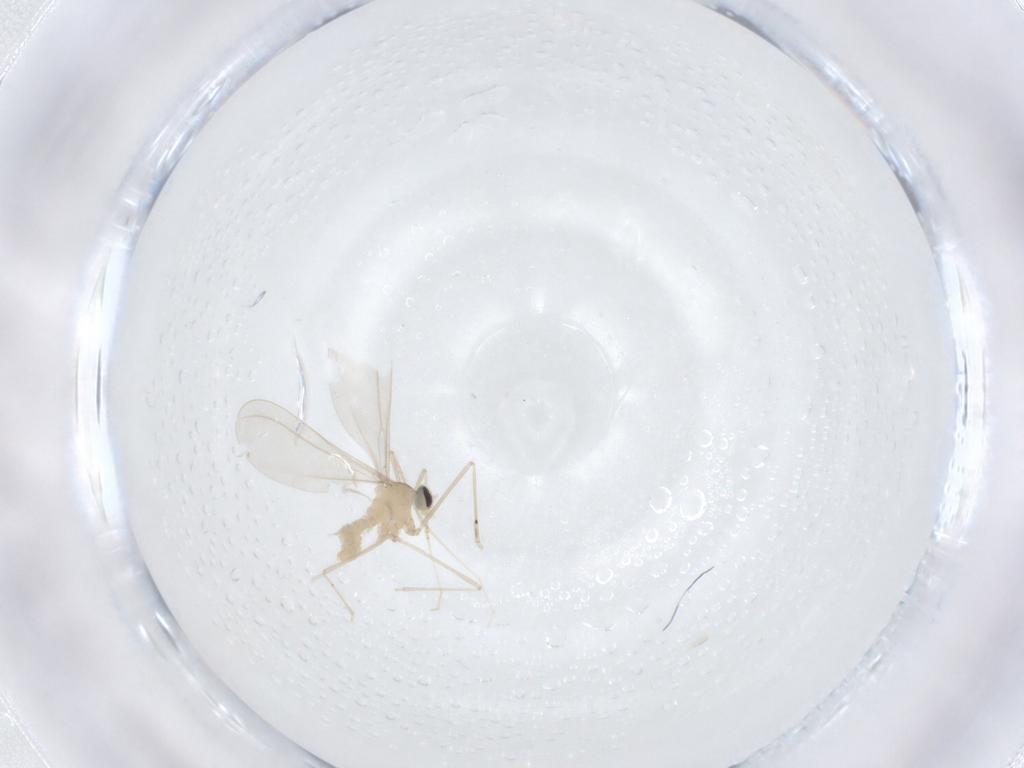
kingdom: Animalia
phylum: Arthropoda
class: Insecta
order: Diptera
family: Cecidomyiidae
